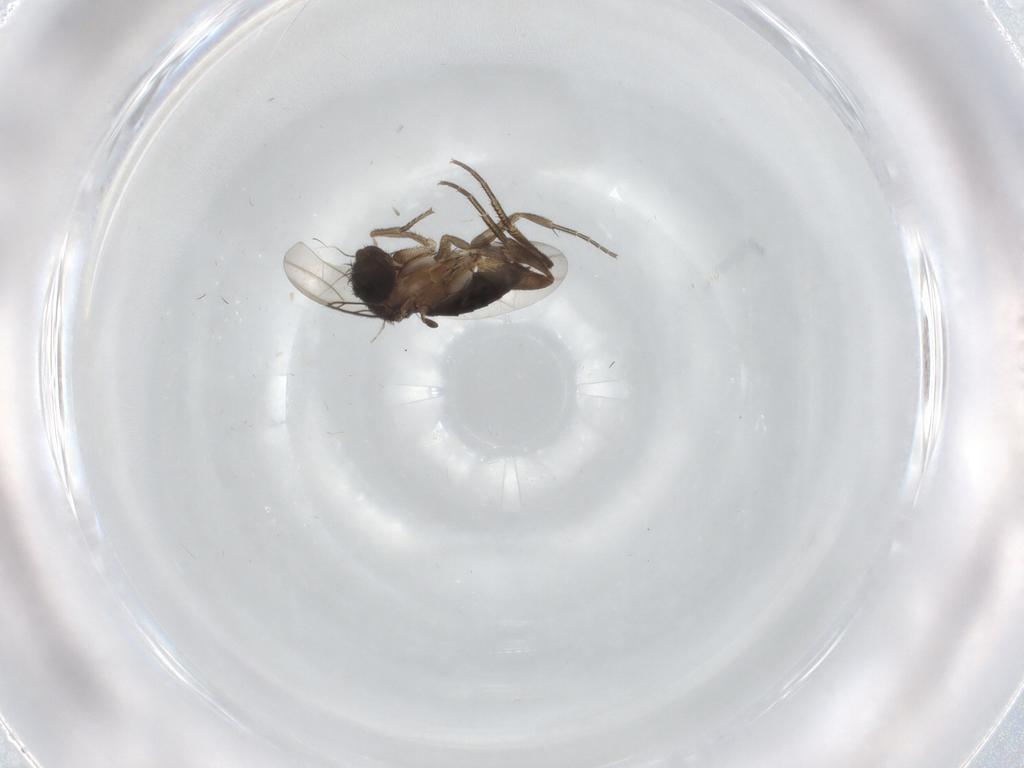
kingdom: Animalia
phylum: Arthropoda
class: Insecta
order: Diptera
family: Phoridae
